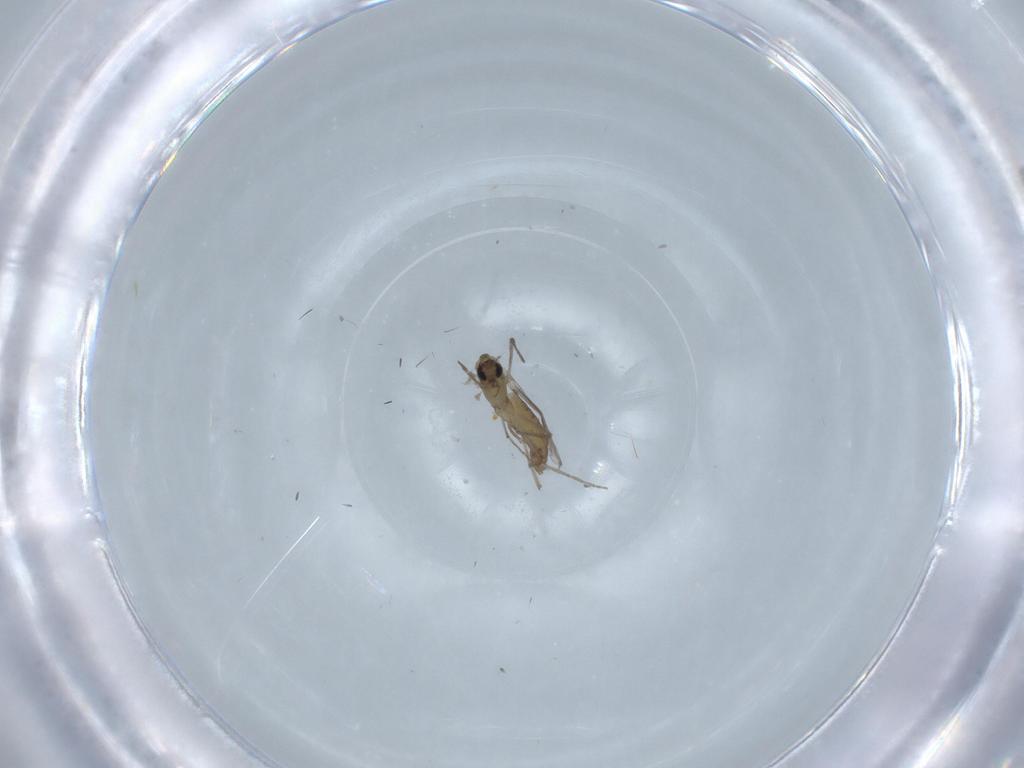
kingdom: Animalia
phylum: Arthropoda
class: Insecta
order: Diptera
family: Chironomidae
